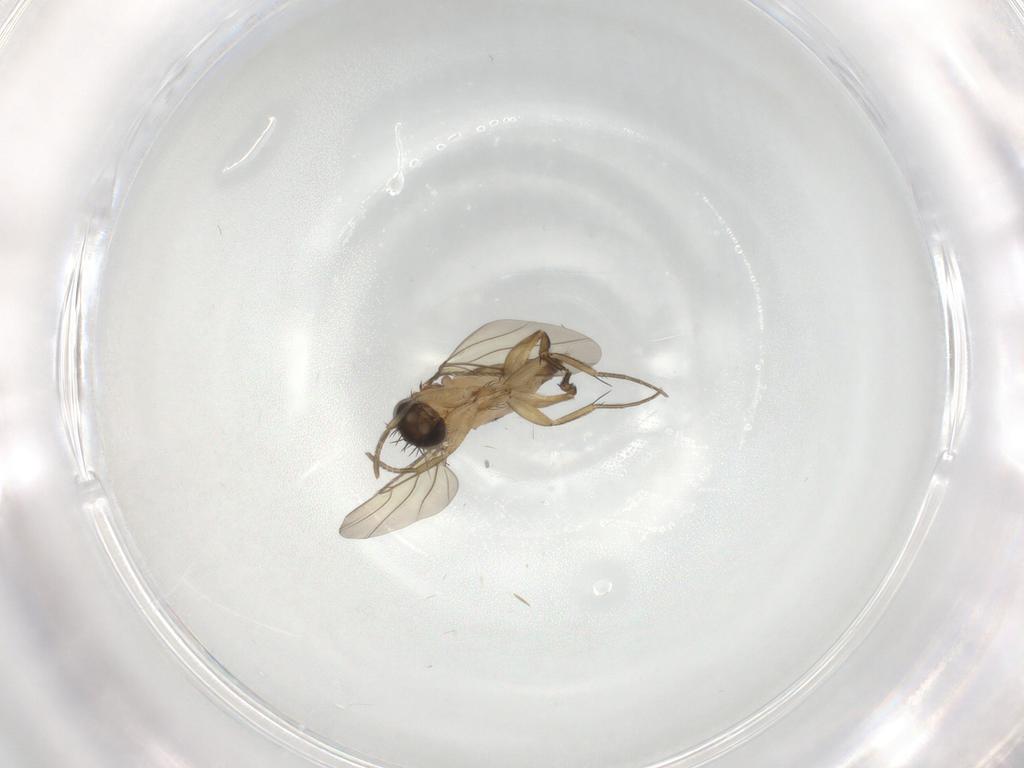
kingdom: Animalia
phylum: Arthropoda
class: Insecta
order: Diptera
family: Phoridae
